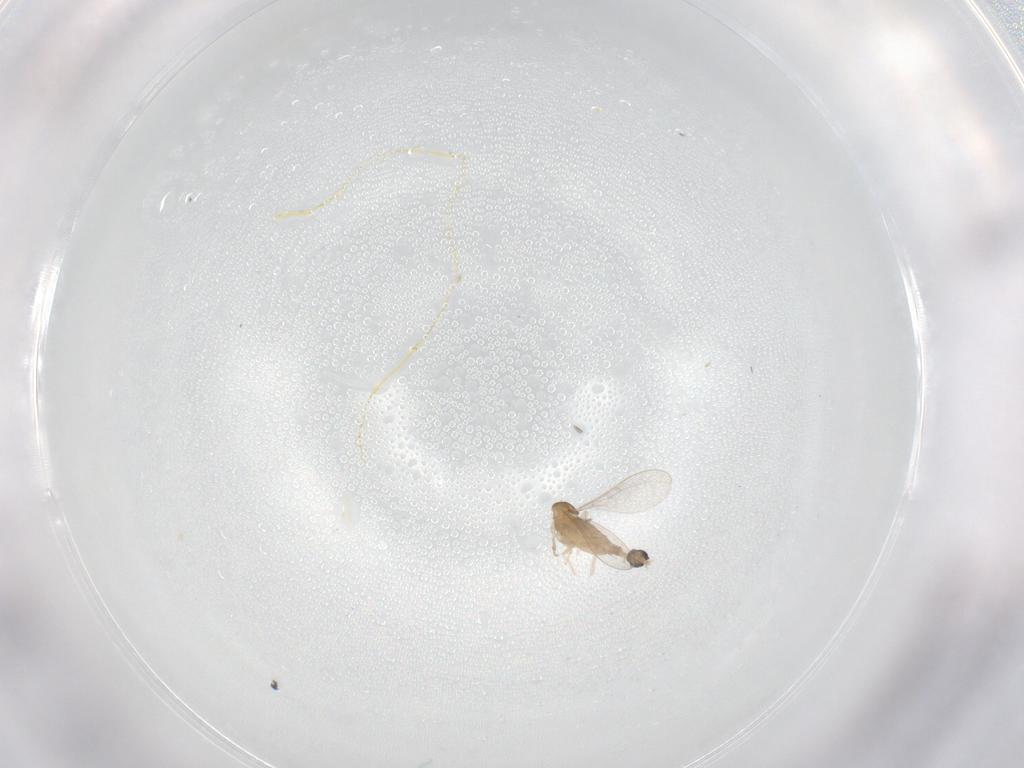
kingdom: Animalia
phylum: Arthropoda
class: Insecta
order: Diptera
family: Cecidomyiidae
